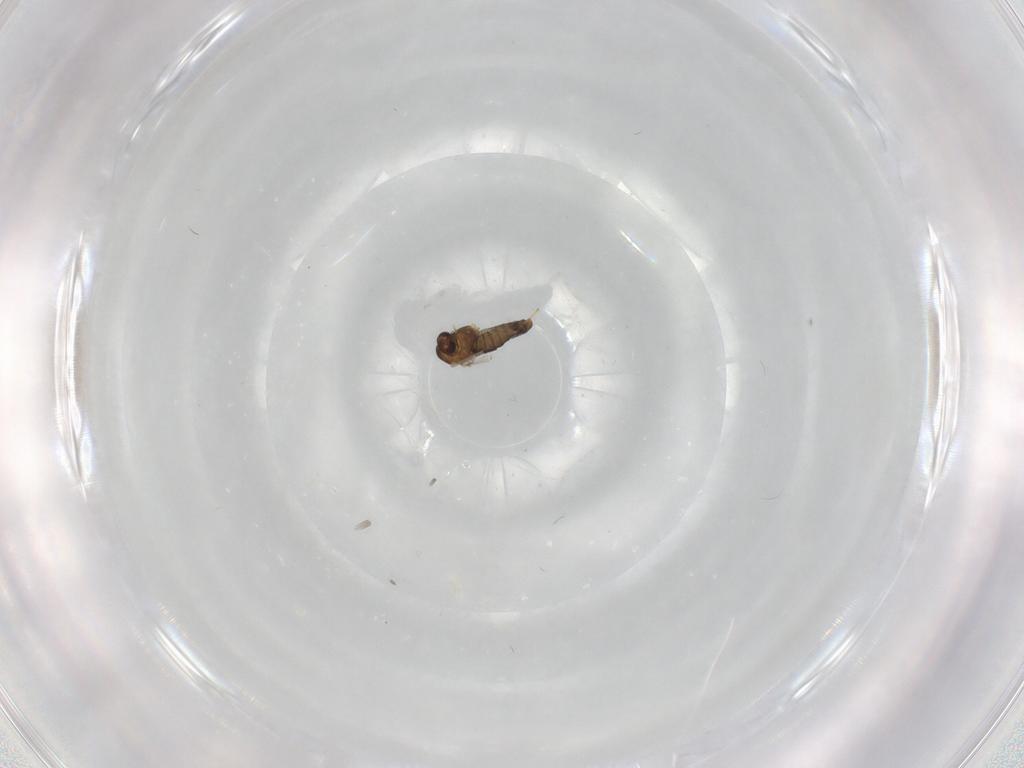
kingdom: Animalia
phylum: Arthropoda
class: Insecta
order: Diptera
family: Chironomidae
